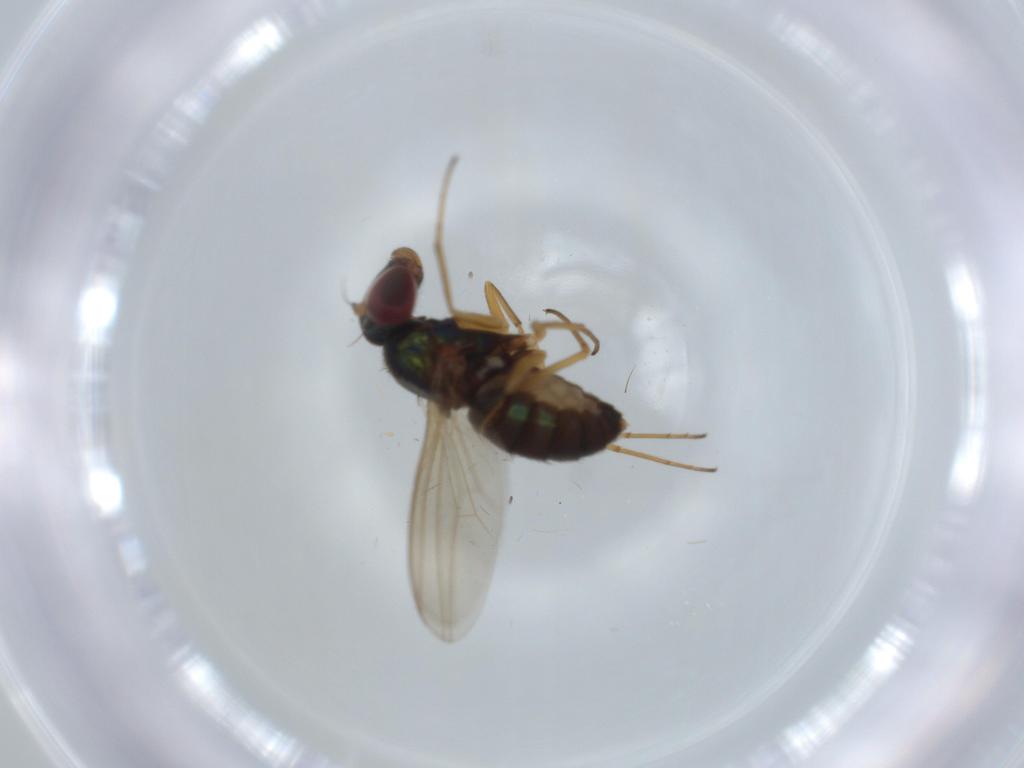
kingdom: Animalia
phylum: Arthropoda
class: Insecta
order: Diptera
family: Dolichopodidae
